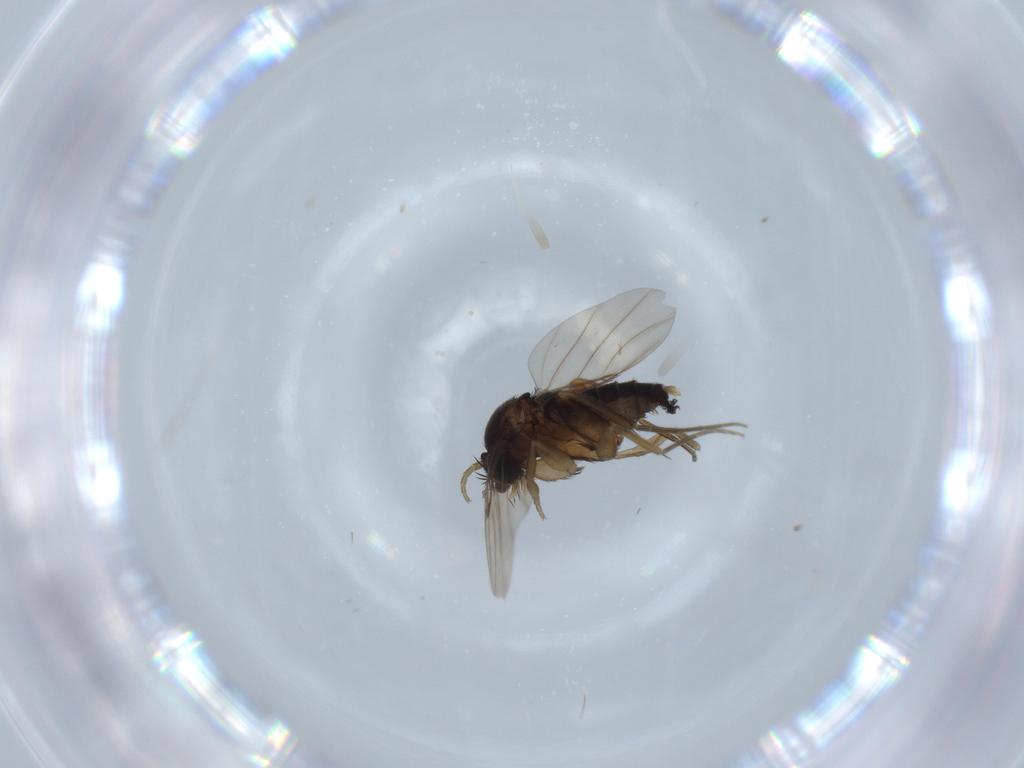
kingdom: Animalia
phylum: Arthropoda
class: Insecta
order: Diptera
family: Phoridae
